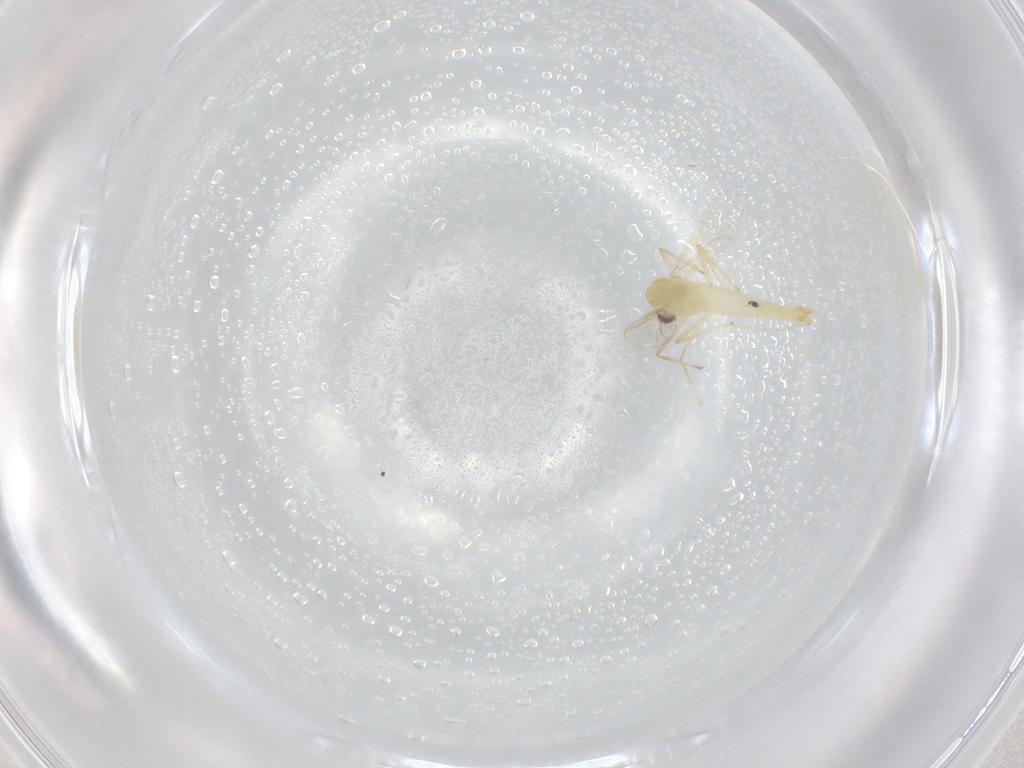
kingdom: Animalia
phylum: Arthropoda
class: Insecta
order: Diptera
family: Chironomidae
